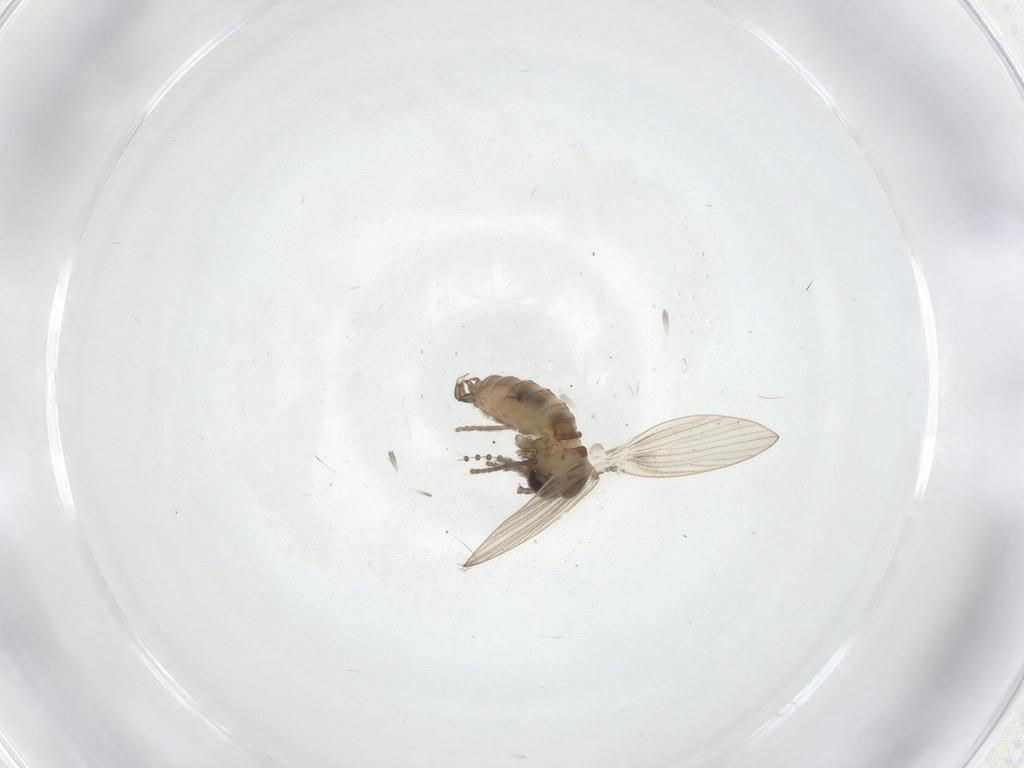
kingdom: Animalia
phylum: Arthropoda
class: Insecta
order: Diptera
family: Psychodidae
